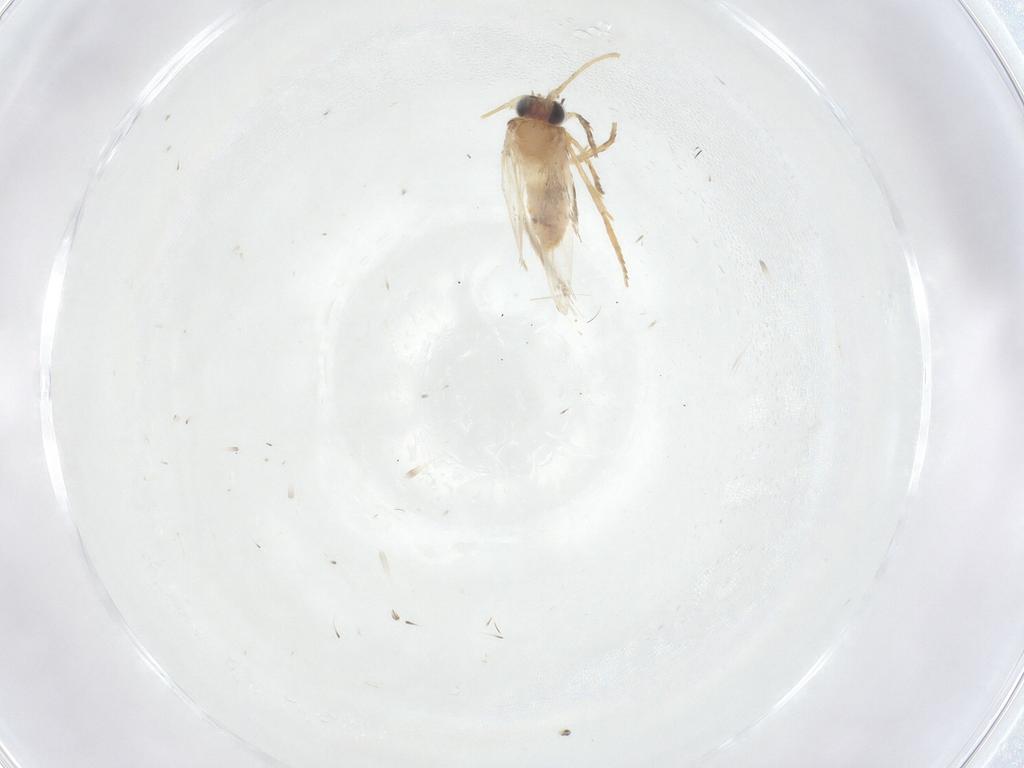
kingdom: Animalia
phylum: Arthropoda
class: Insecta
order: Lepidoptera
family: Nepticulidae
